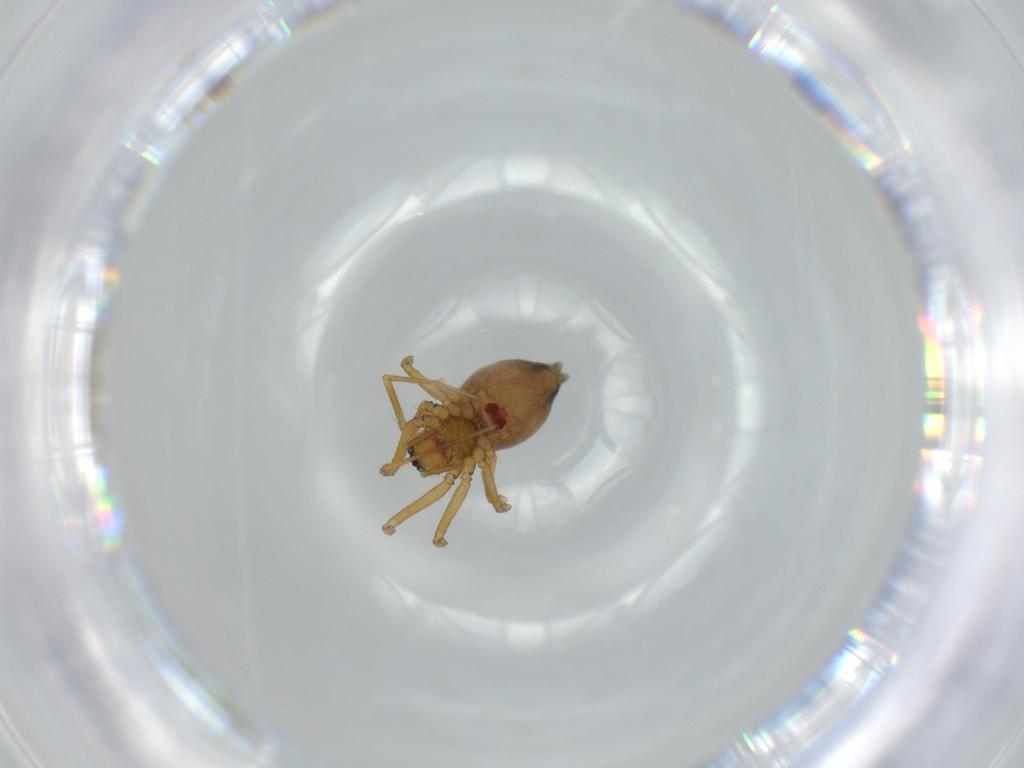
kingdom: Animalia
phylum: Arthropoda
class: Arachnida
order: Araneae
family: Linyphiidae
